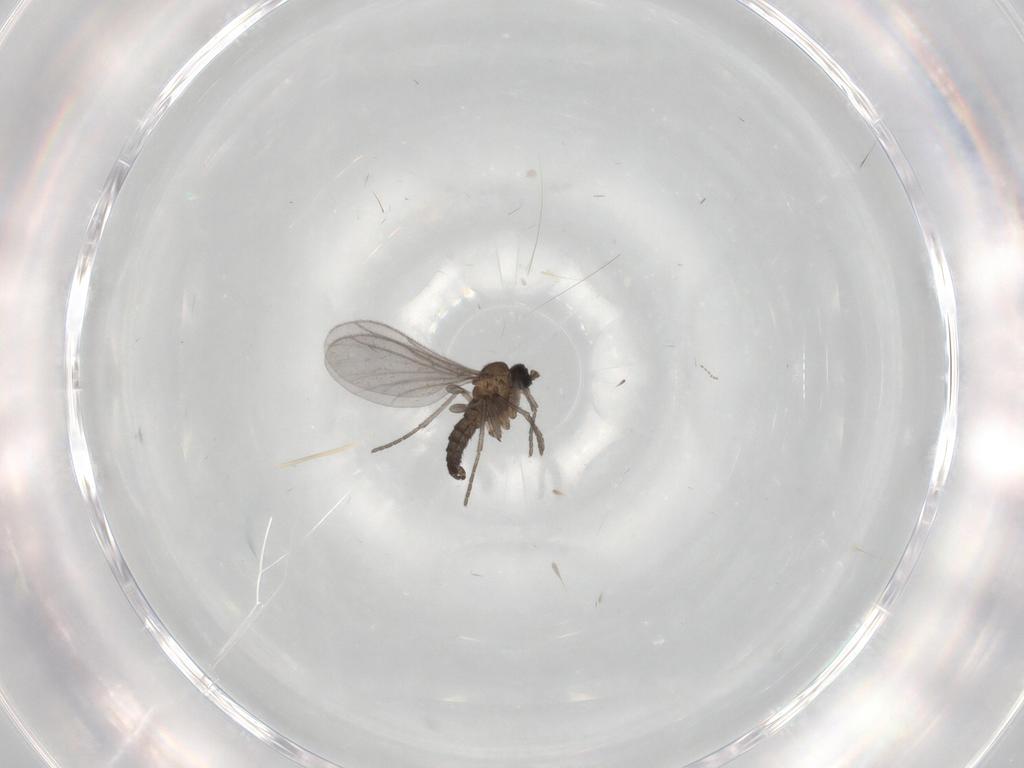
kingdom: Animalia
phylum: Arthropoda
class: Insecta
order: Diptera
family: Sciaridae
